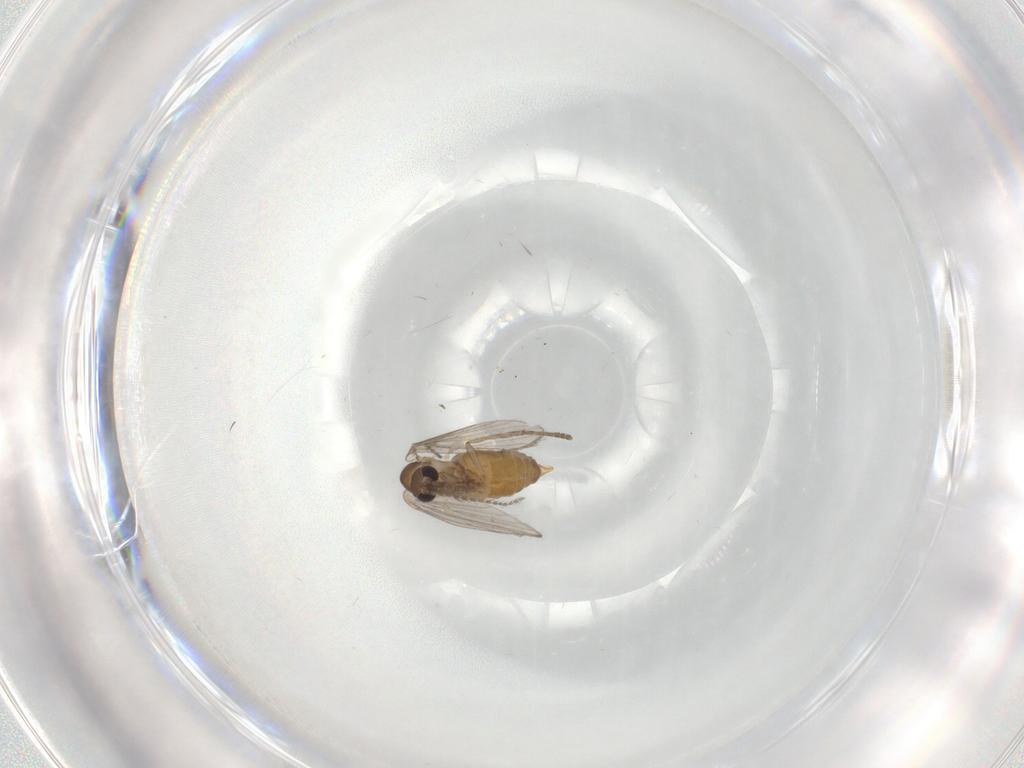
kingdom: Animalia
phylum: Arthropoda
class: Insecta
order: Diptera
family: Sciaridae
